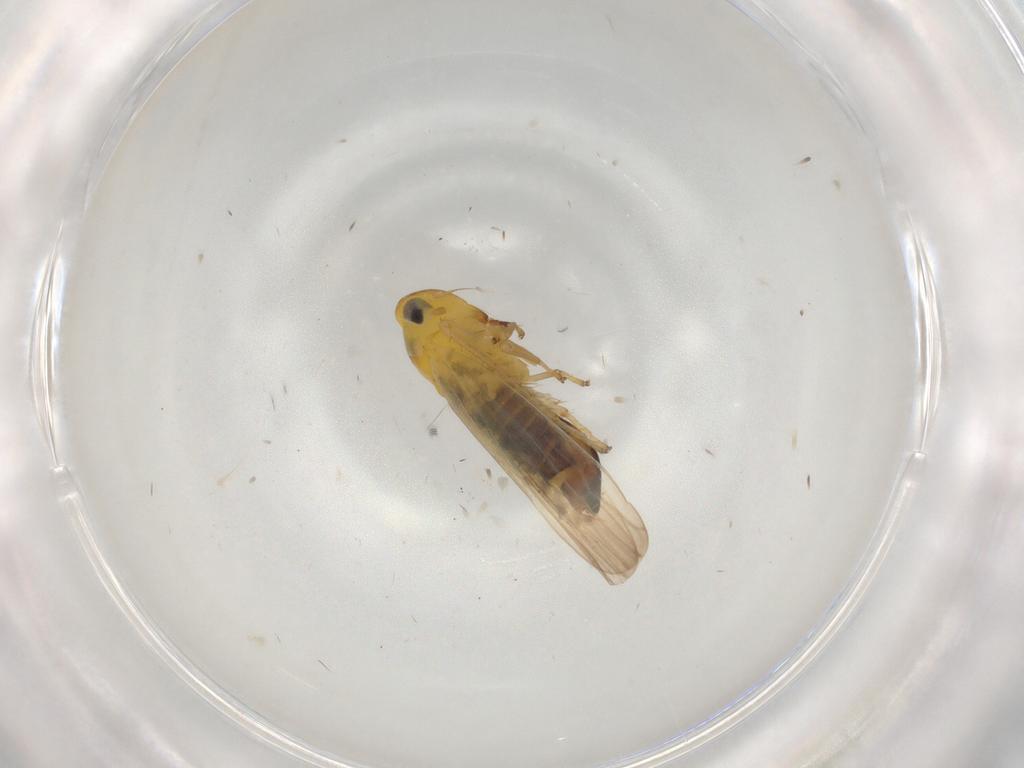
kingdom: Animalia
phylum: Arthropoda
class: Insecta
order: Hemiptera
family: Cicadellidae
